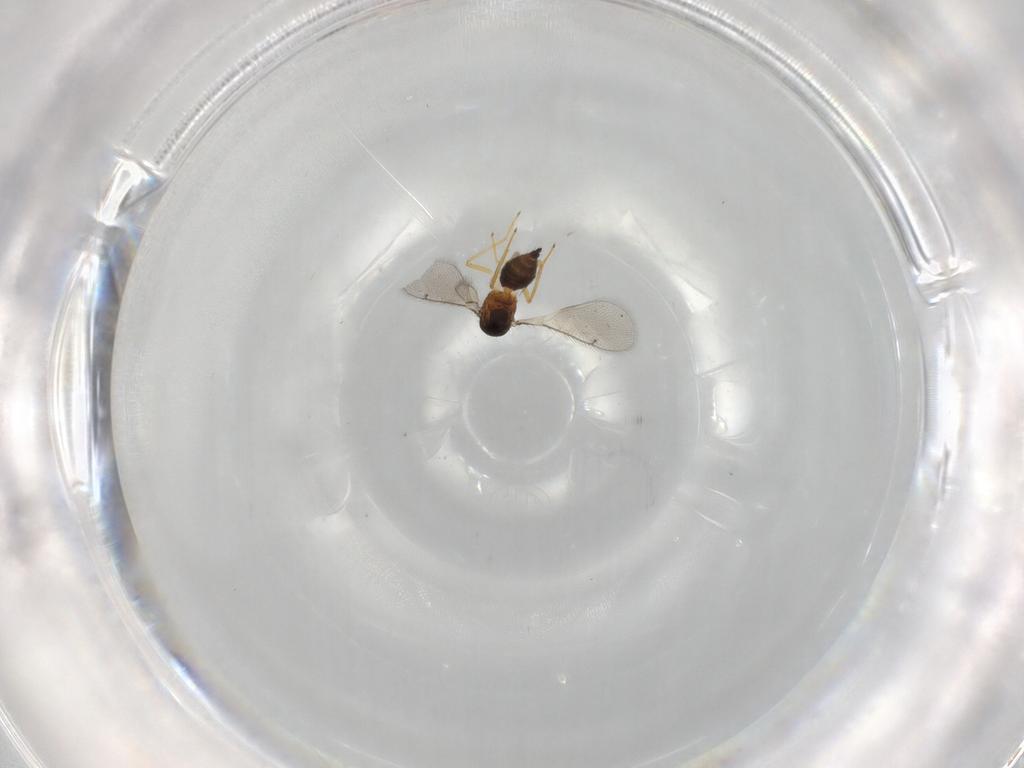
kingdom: Animalia
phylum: Arthropoda
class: Insecta
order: Hymenoptera
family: Eulophidae
